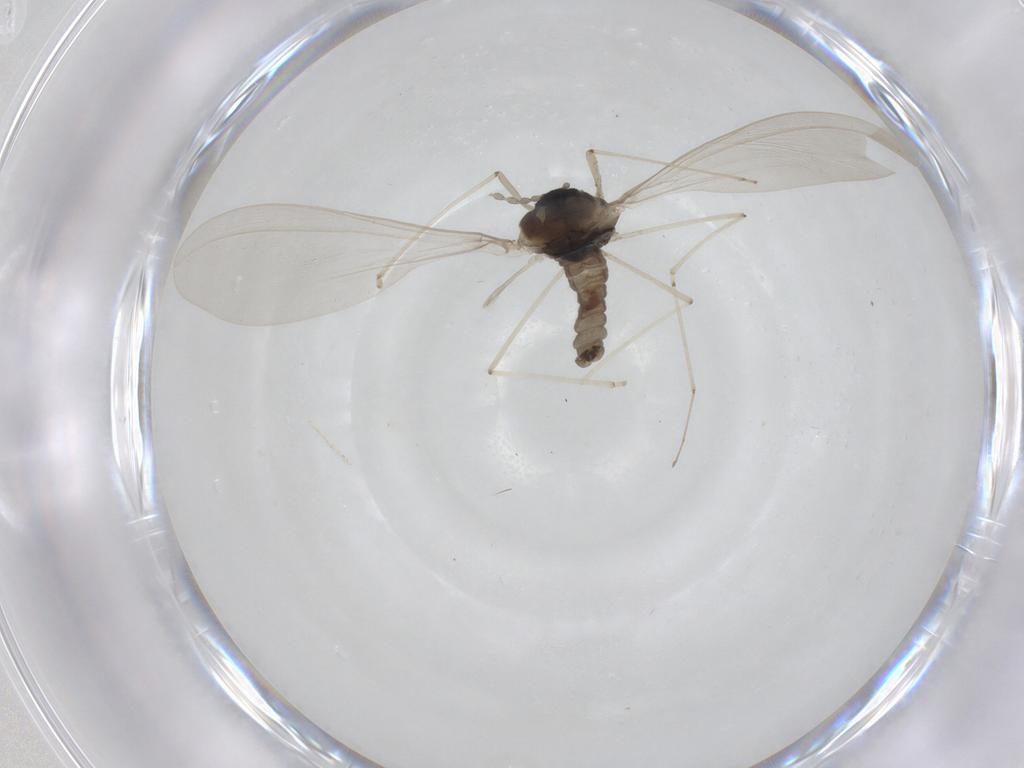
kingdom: Animalia
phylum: Arthropoda
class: Insecta
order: Diptera
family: Cecidomyiidae
